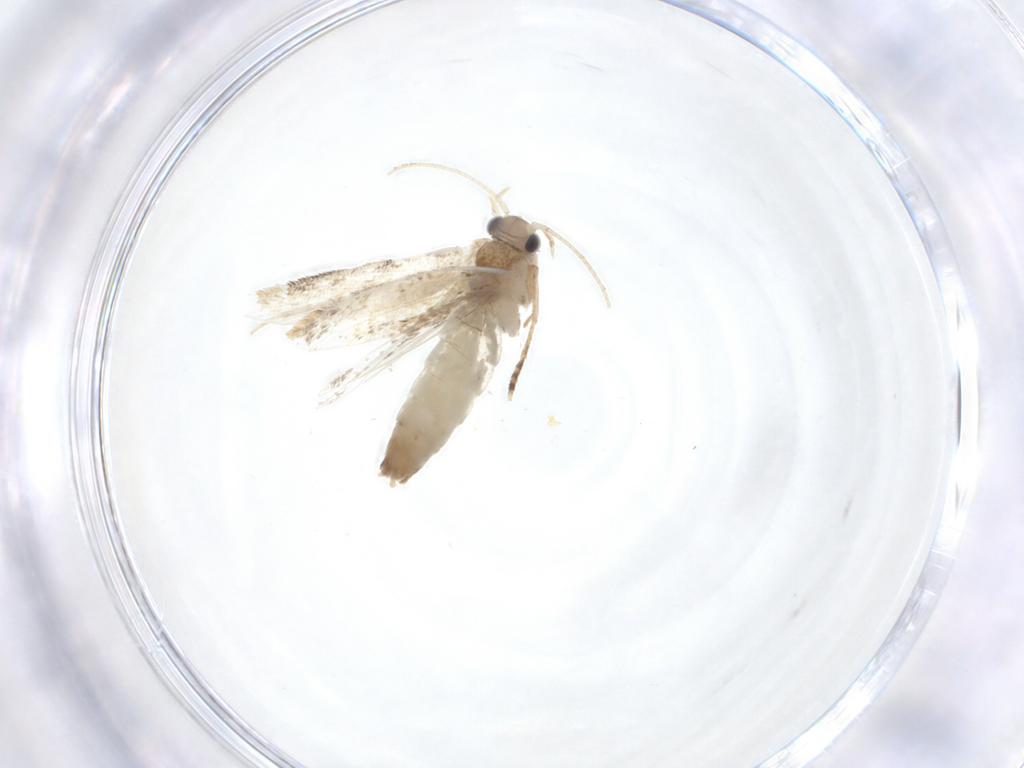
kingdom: Animalia
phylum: Arthropoda
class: Insecta
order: Lepidoptera
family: Dryadaulidae
